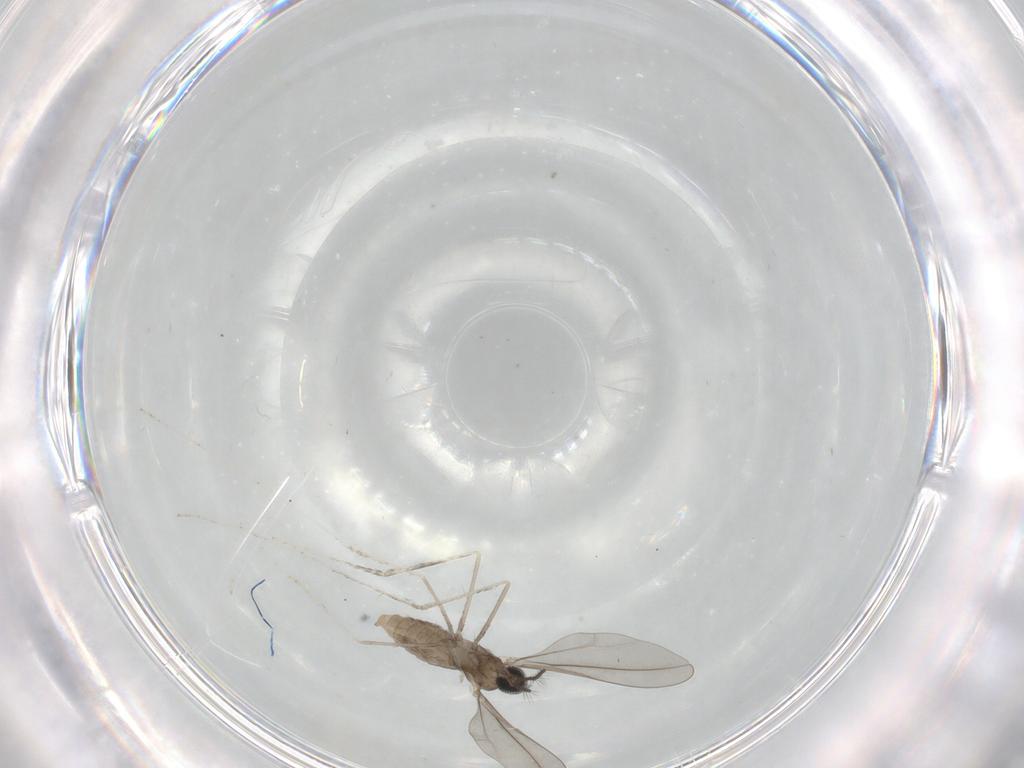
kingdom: Animalia
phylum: Arthropoda
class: Insecta
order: Diptera
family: Cecidomyiidae
